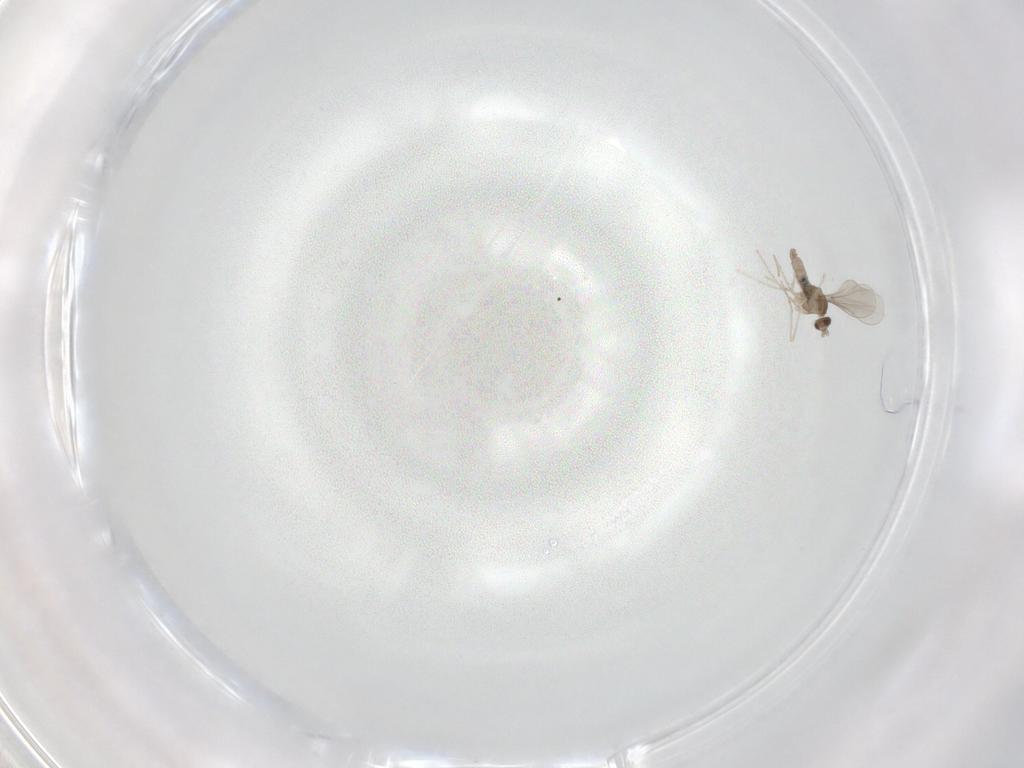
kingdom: Animalia
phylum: Arthropoda
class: Insecta
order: Diptera
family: Cecidomyiidae
